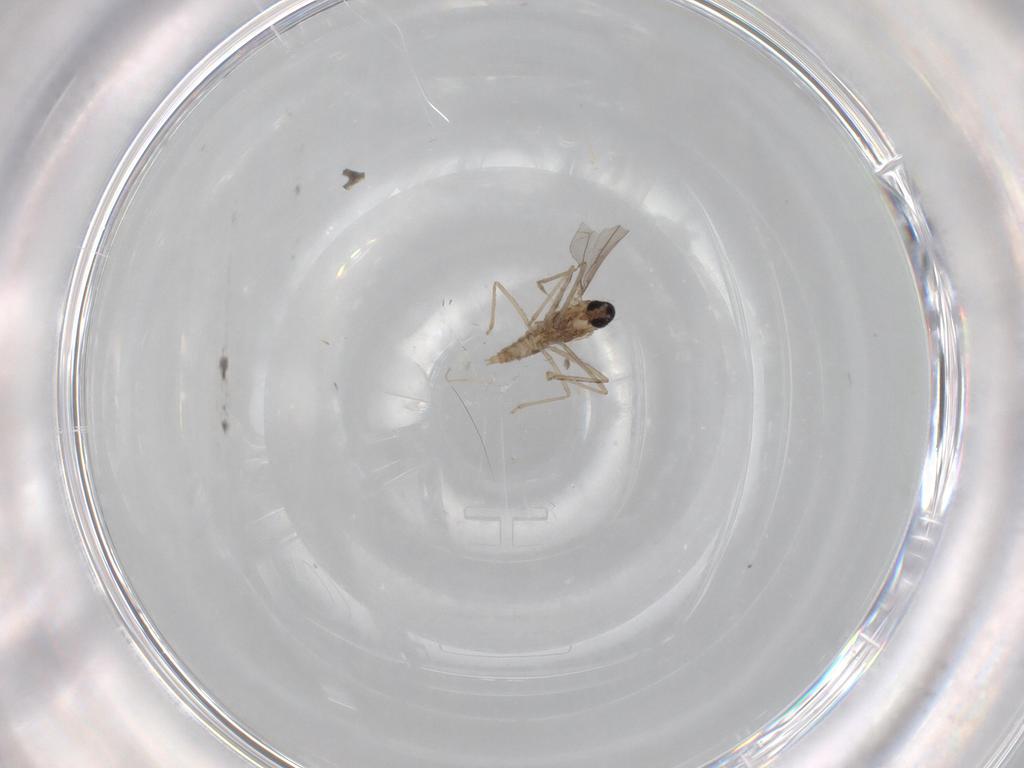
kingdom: Animalia
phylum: Arthropoda
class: Insecta
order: Diptera
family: Cecidomyiidae
